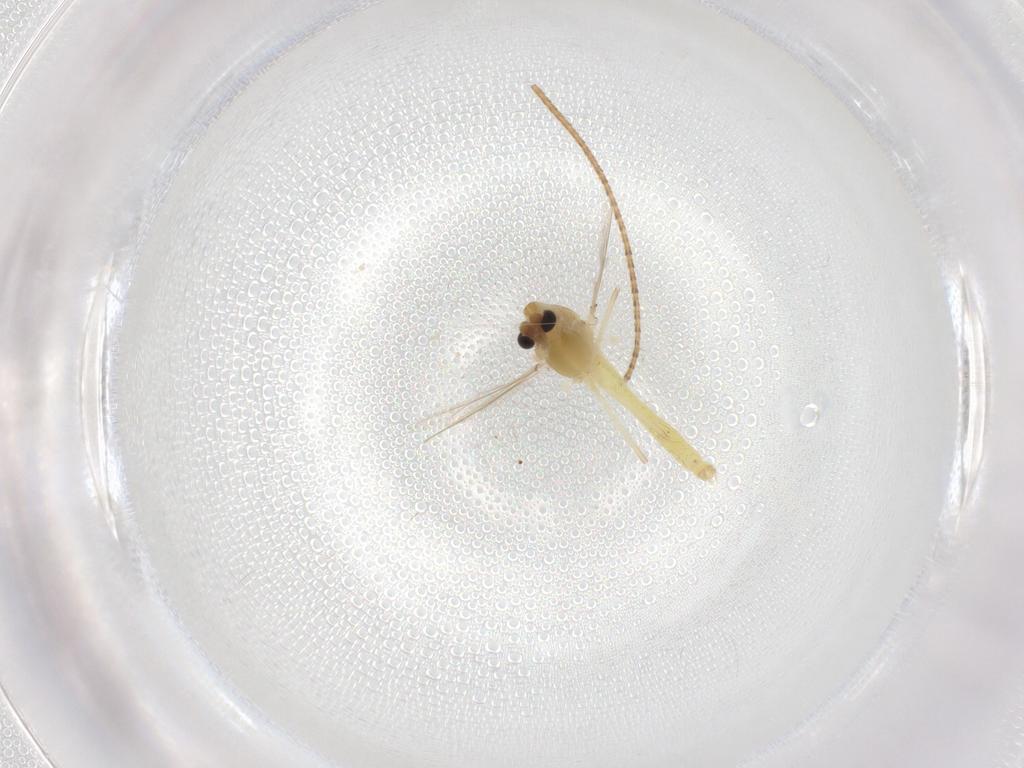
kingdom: Animalia
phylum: Arthropoda
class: Insecta
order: Diptera
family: Chironomidae
